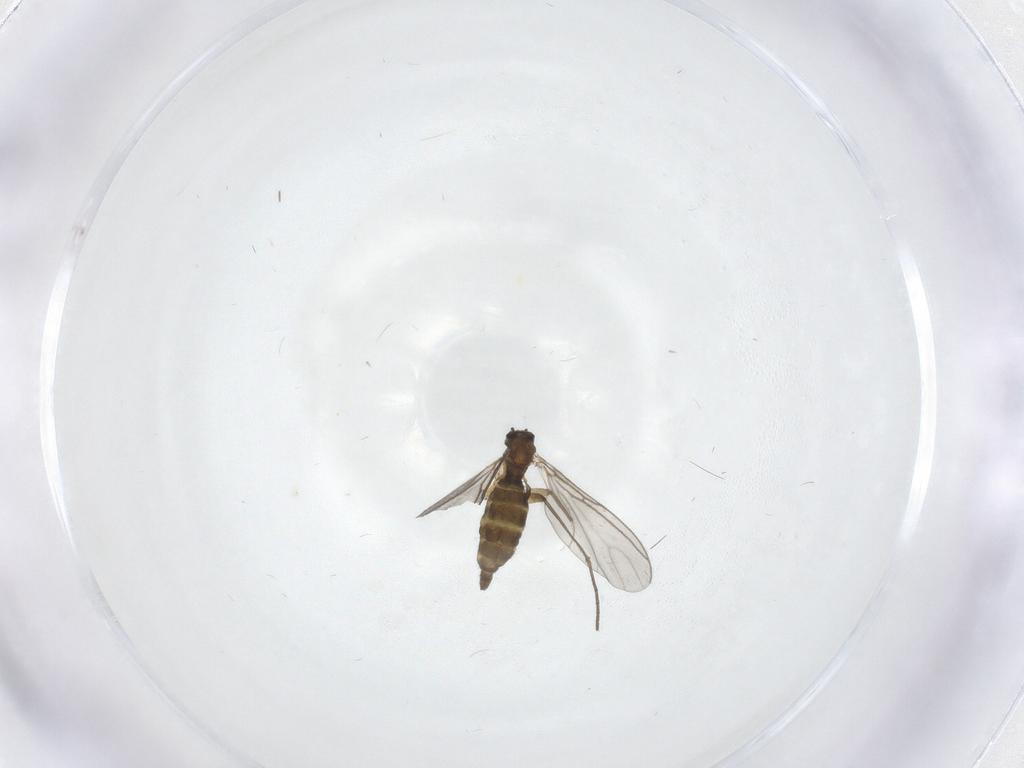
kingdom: Animalia
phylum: Arthropoda
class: Insecta
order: Diptera
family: Sciaridae
